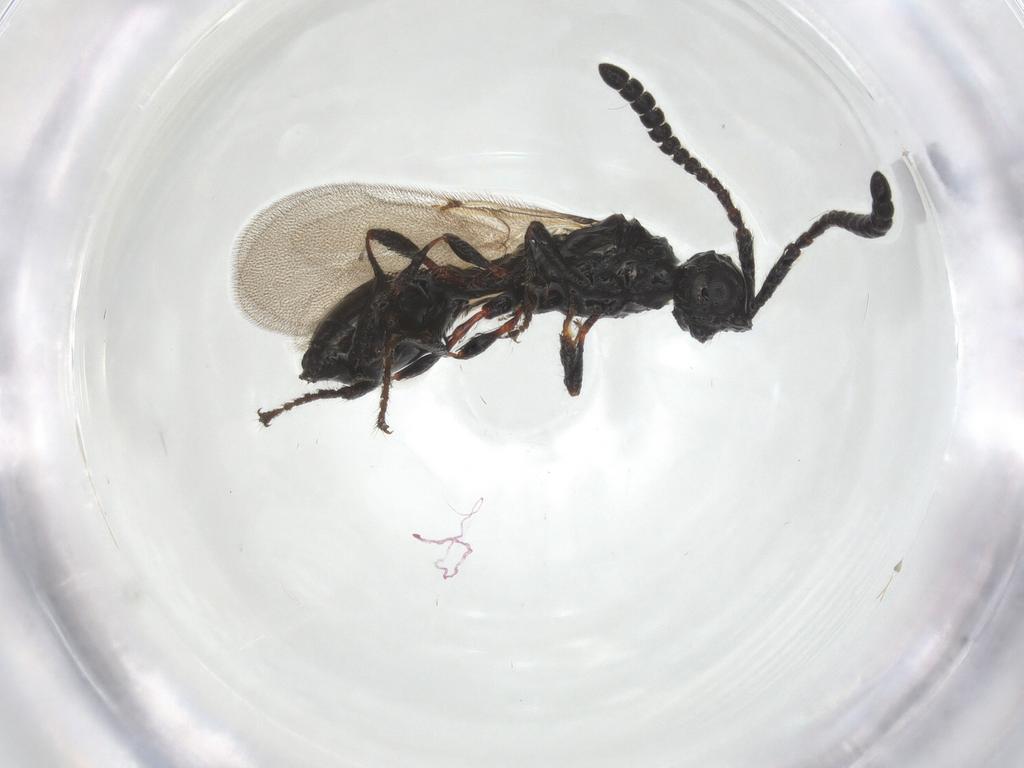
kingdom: Animalia
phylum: Arthropoda
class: Insecta
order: Hymenoptera
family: Diapriidae
